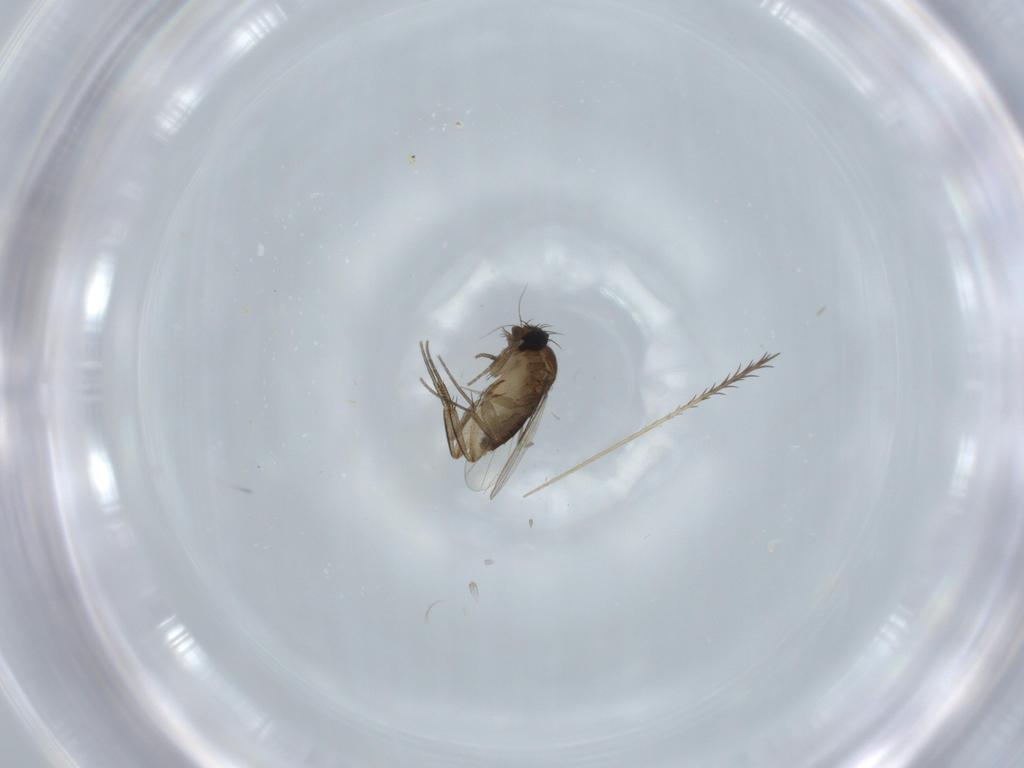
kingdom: Animalia
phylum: Arthropoda
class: Insecta
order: Diptera
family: Phoridae
